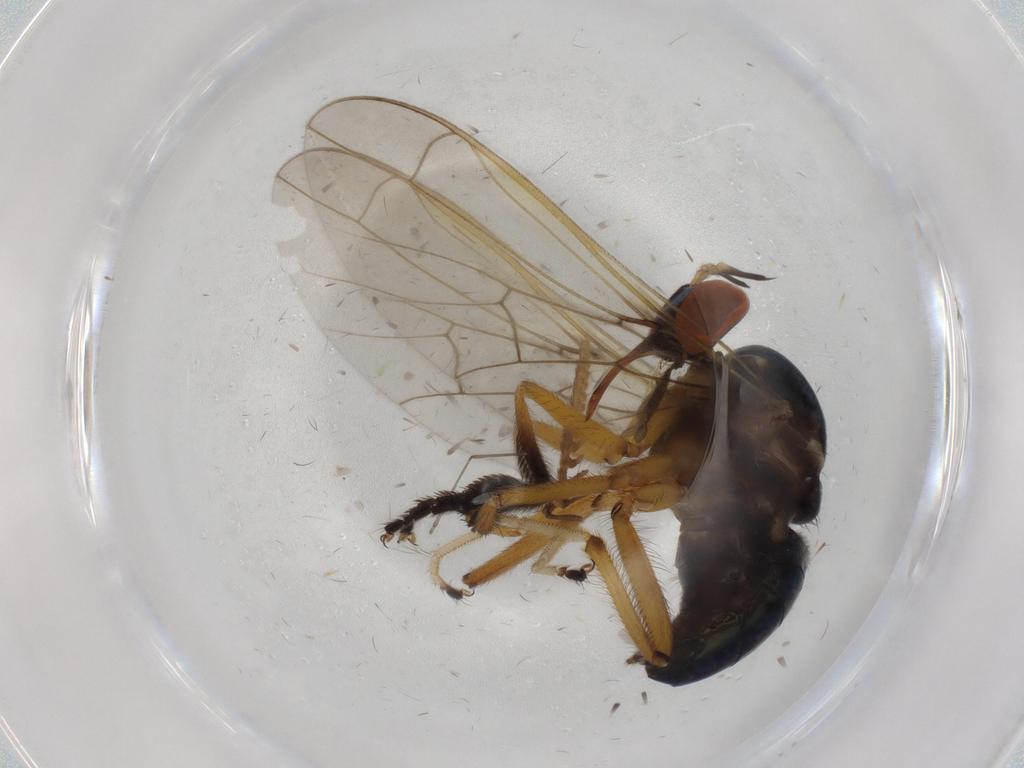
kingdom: Animalia
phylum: Arthropoda
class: Insecta
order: Diptera
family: Empididae
